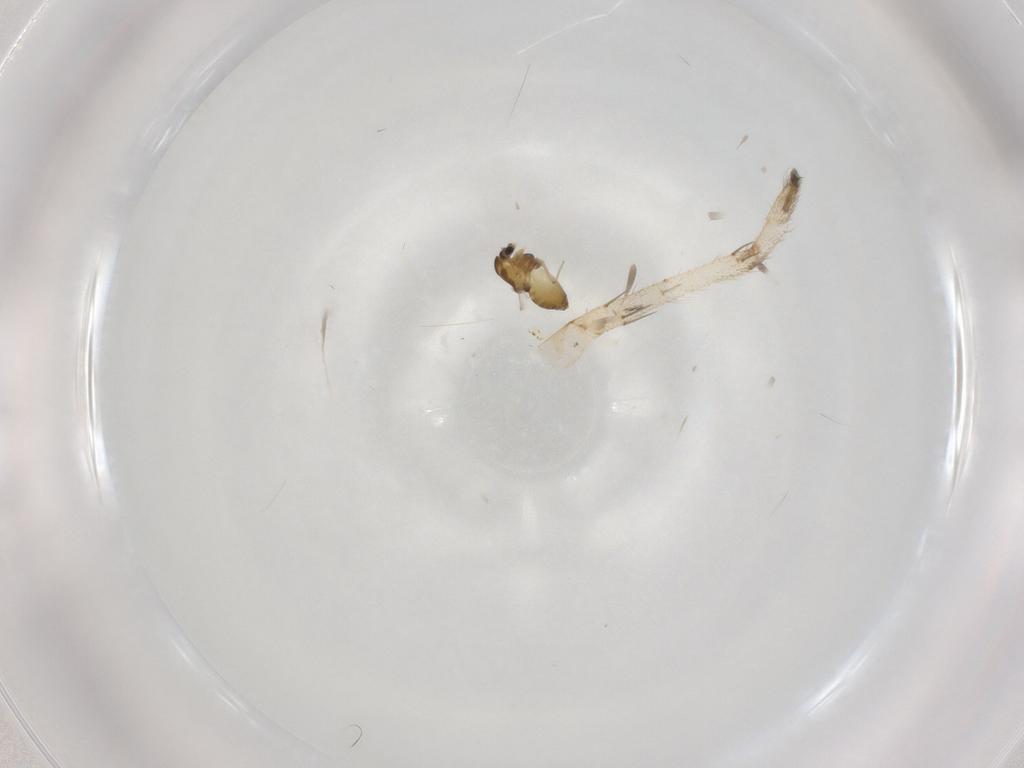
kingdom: Animalia
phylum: Arthropoda
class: Insecta
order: Diptera
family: Chironomidae
